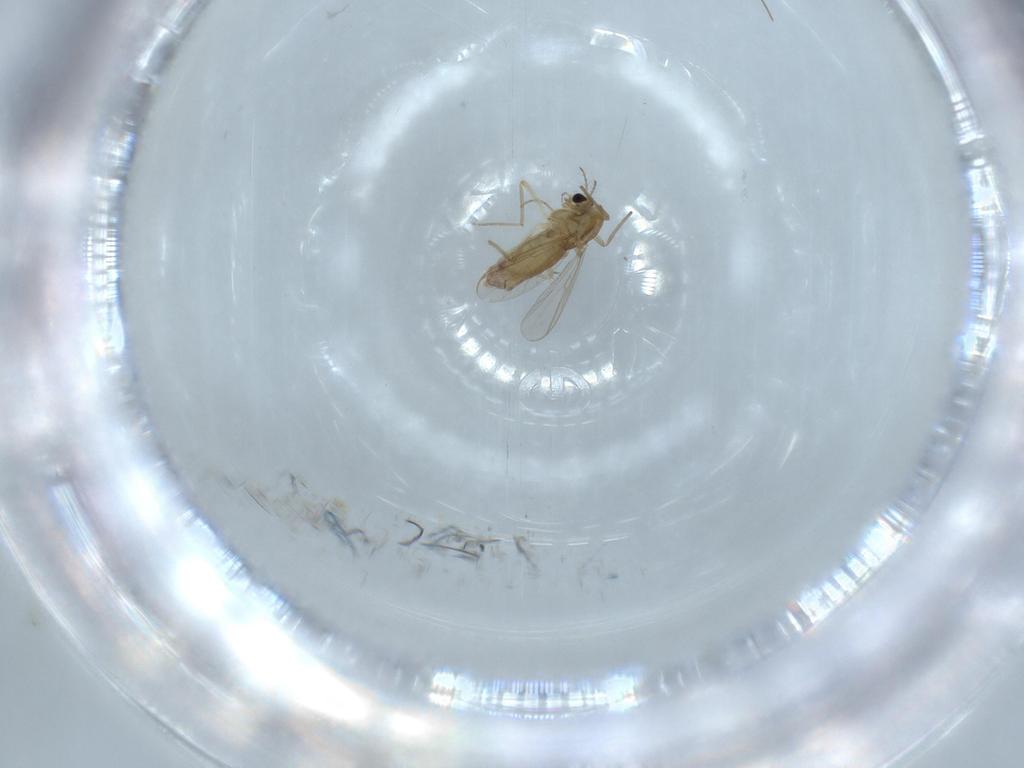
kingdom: Animalia
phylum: Arthropoda
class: Insecta
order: Diptera
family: Chironomidae
